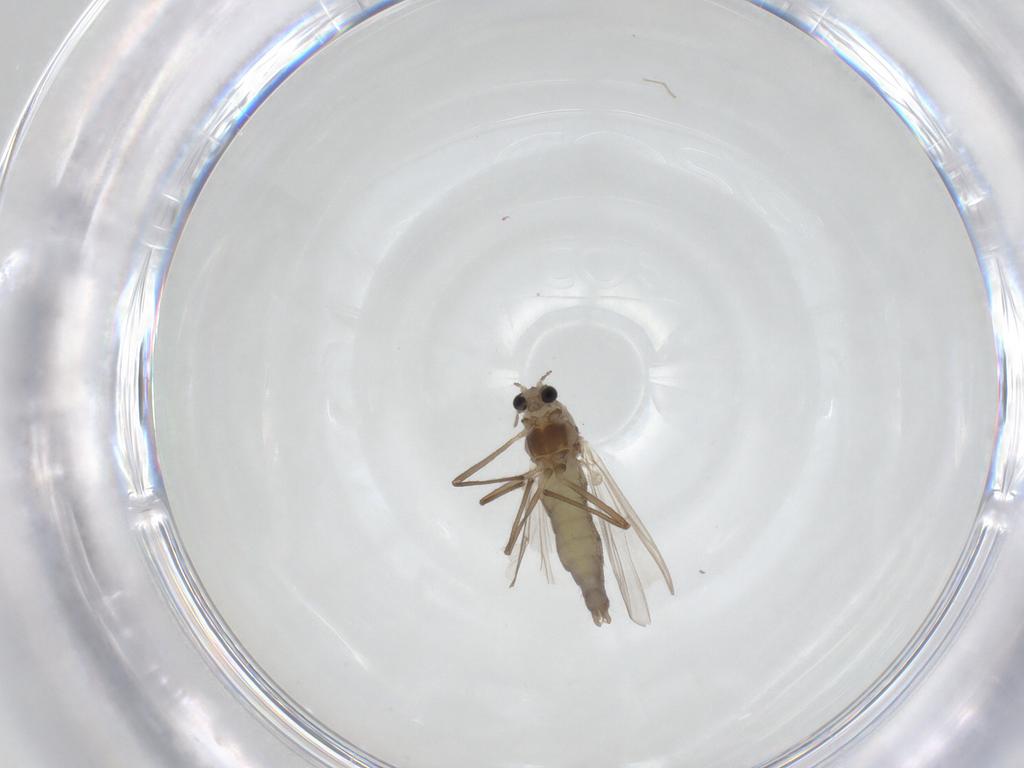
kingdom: Animalia
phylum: Arthropoda
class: Insecta
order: Diptera
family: Chironomidae
